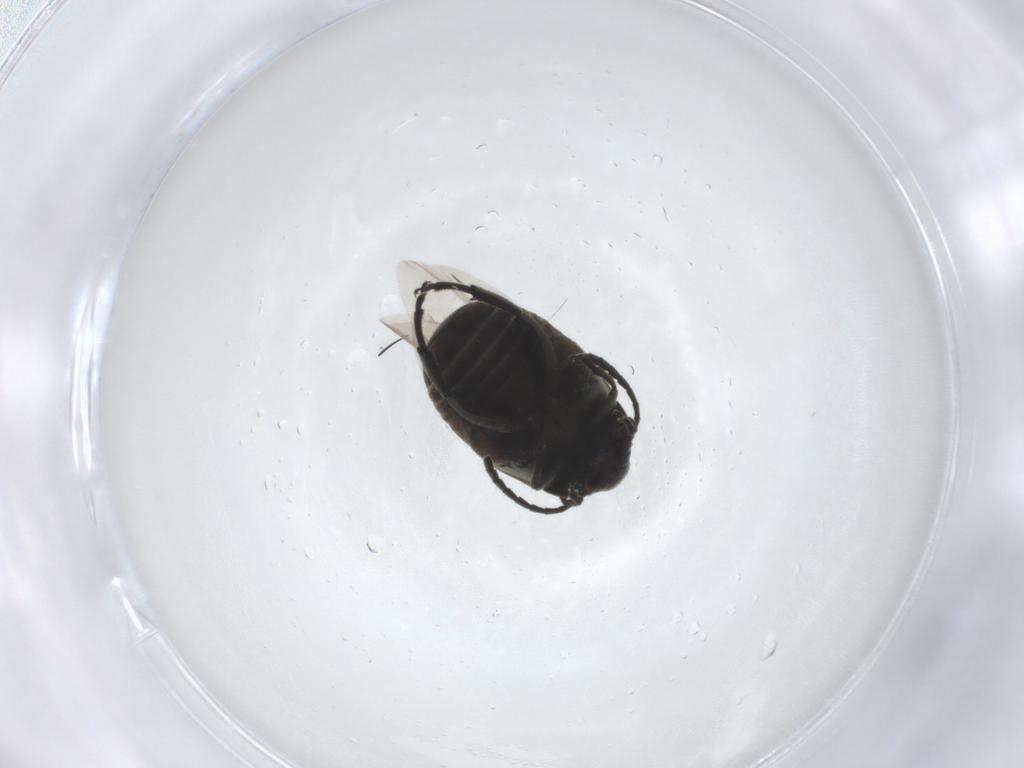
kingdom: Animalia
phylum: Arthropoda
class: Insecta
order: Coleoptera
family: Chrysomelidae
